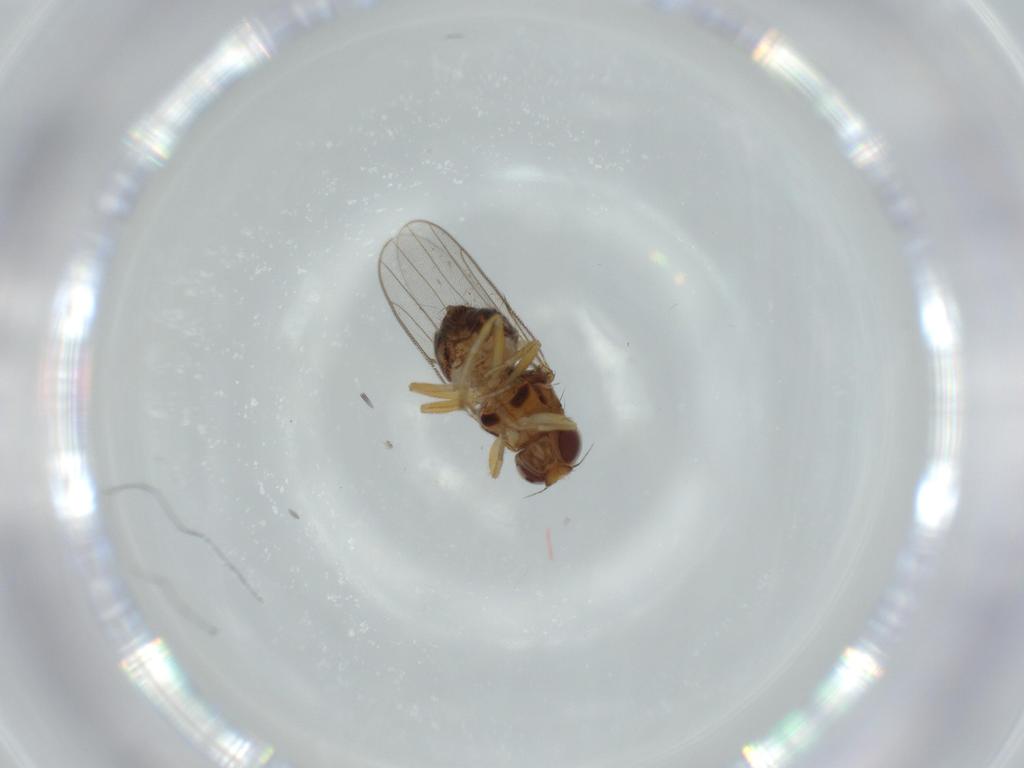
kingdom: Animalia
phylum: Arthropoda
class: Insecta
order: Diptera
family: Chloropidae
